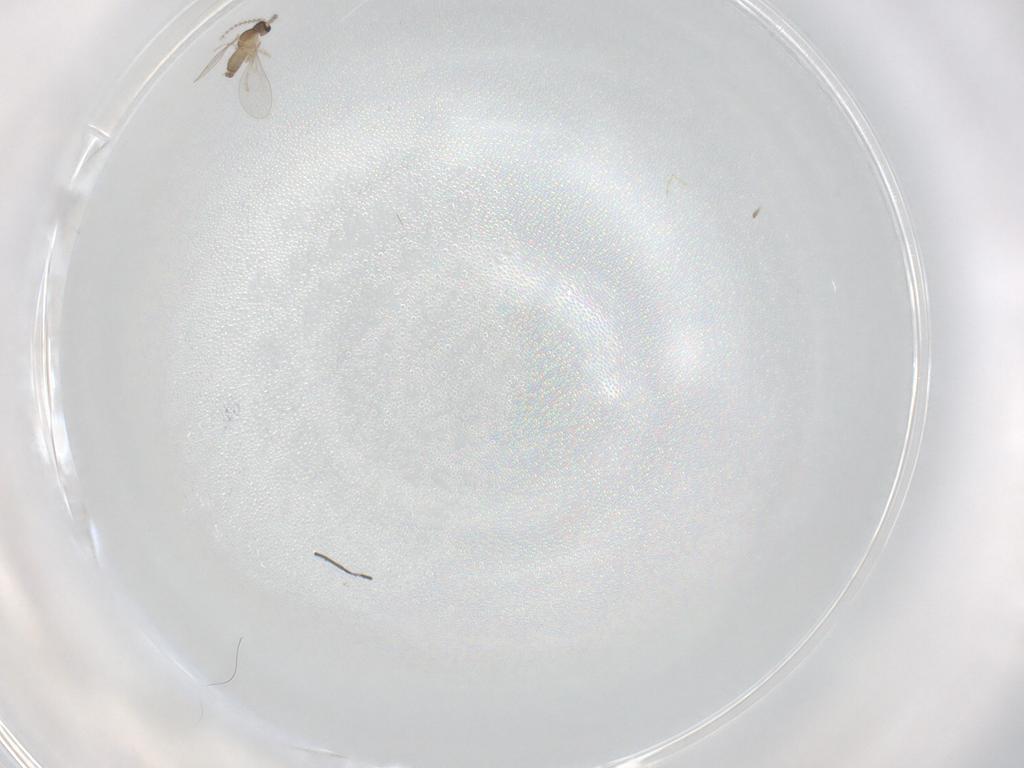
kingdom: Animalia
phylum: Arthropoda
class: Insecta
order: Diptera
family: Cecidomyiidae
